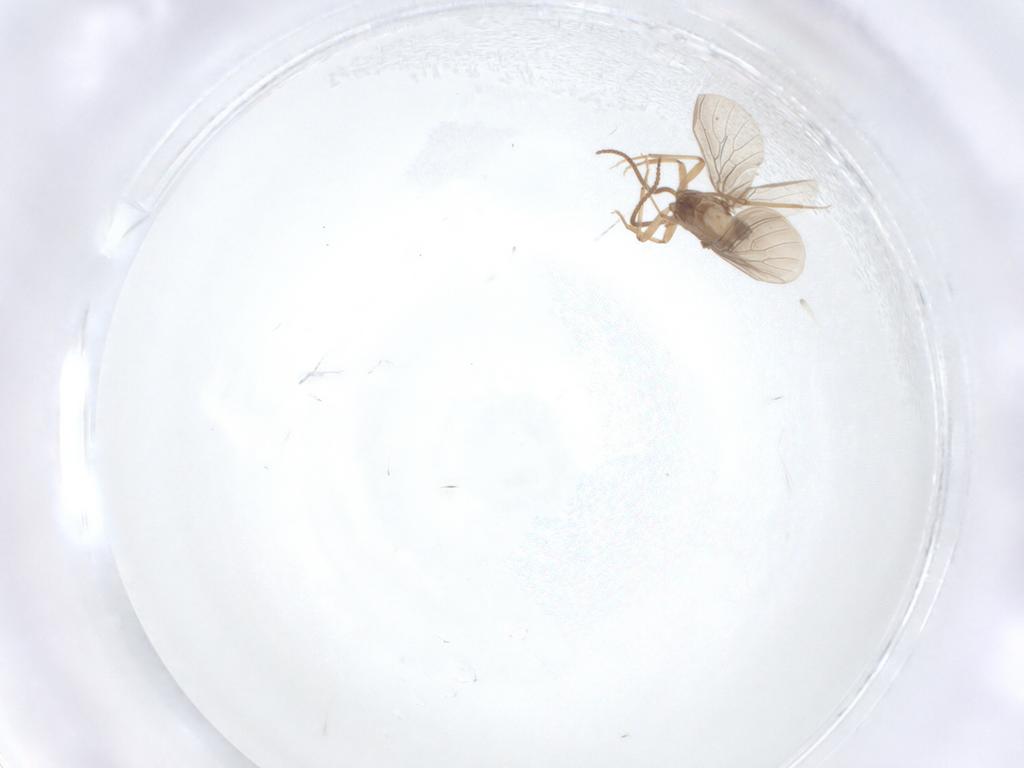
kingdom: Animalia
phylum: Arthropoda
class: Insecta
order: Neuroptera
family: Coniopterygidae
